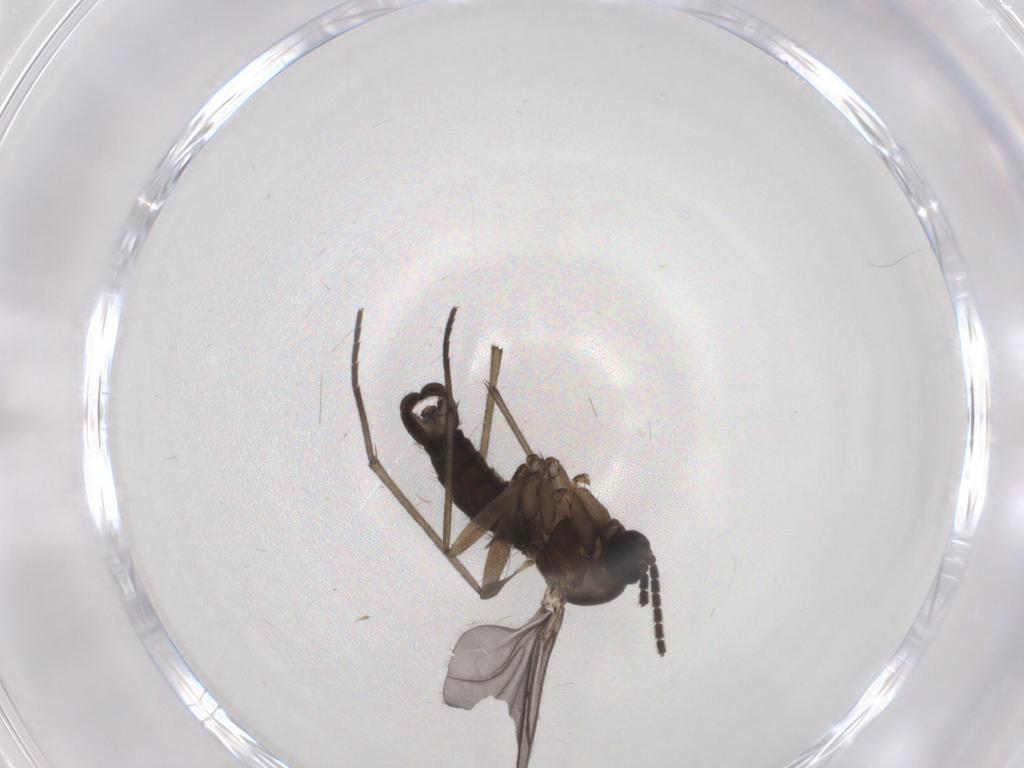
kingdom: Animalia
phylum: Arthropoda
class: Insecta
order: Diptera
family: Sciaridae
